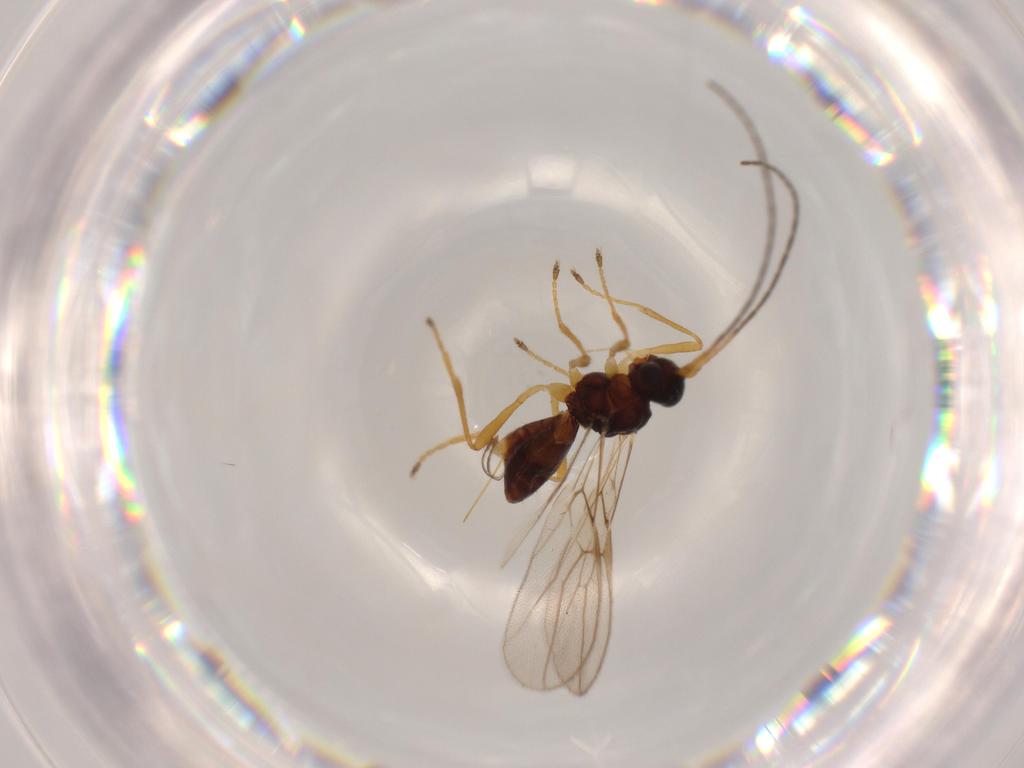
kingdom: Animalia
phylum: Arthropoda
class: Insecta
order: Hymenoptera
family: Braconidae
